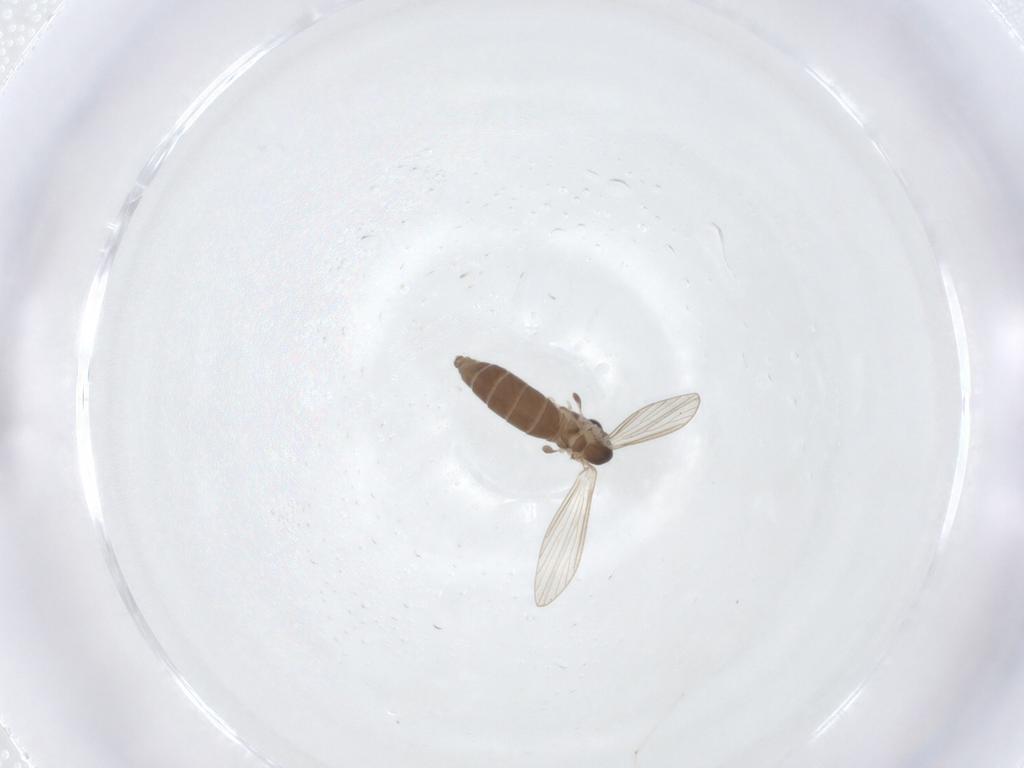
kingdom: Animalia
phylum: Arthropoda
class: Insecta
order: Diptera
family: Psychodidae
